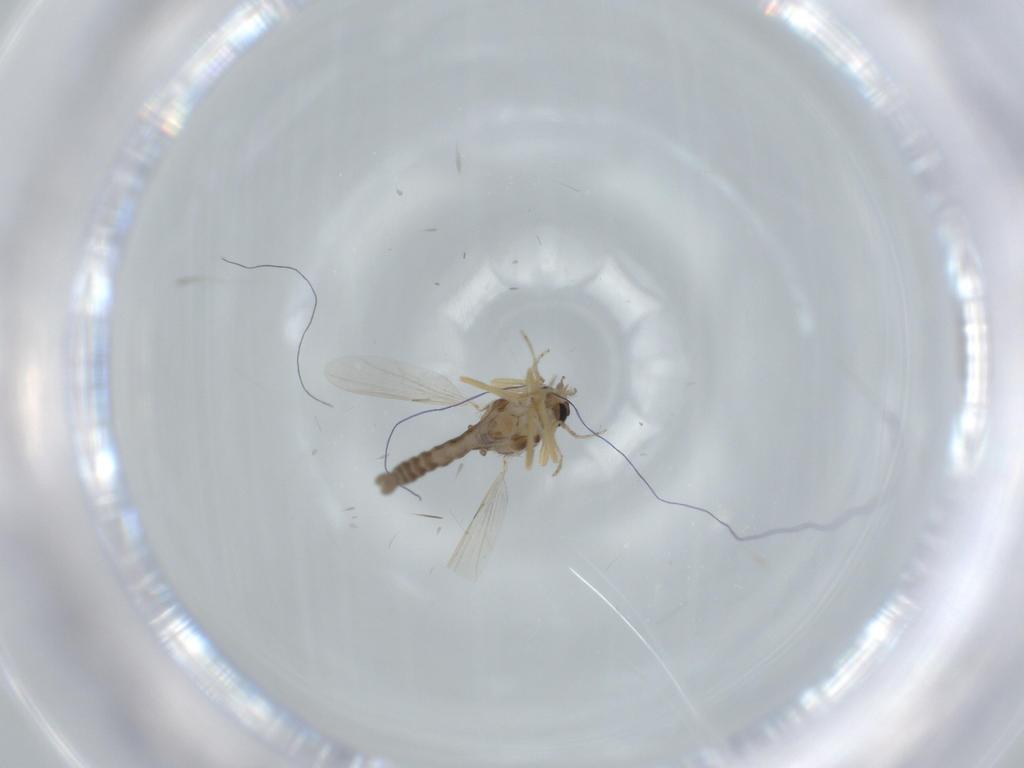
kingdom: Animalia
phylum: Arthropoda
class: Insecta
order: Diptera
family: Ceratopogonidae
